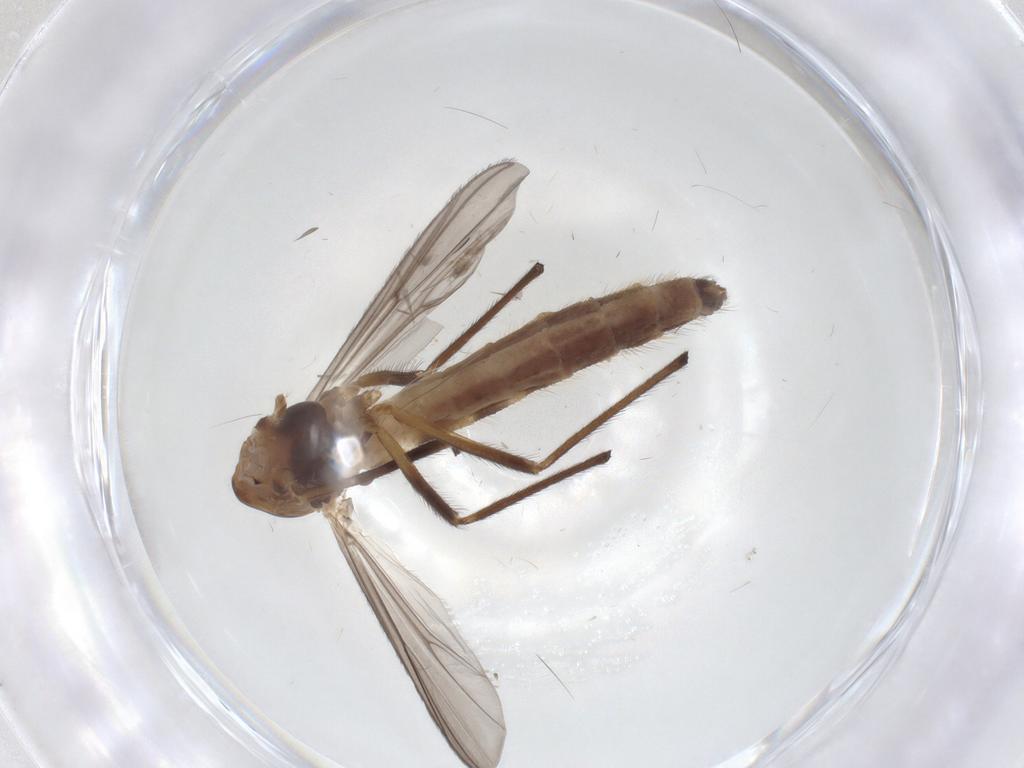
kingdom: Animalia
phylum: Arthropoda
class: Insecta
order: Diptera
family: Chironomidae
